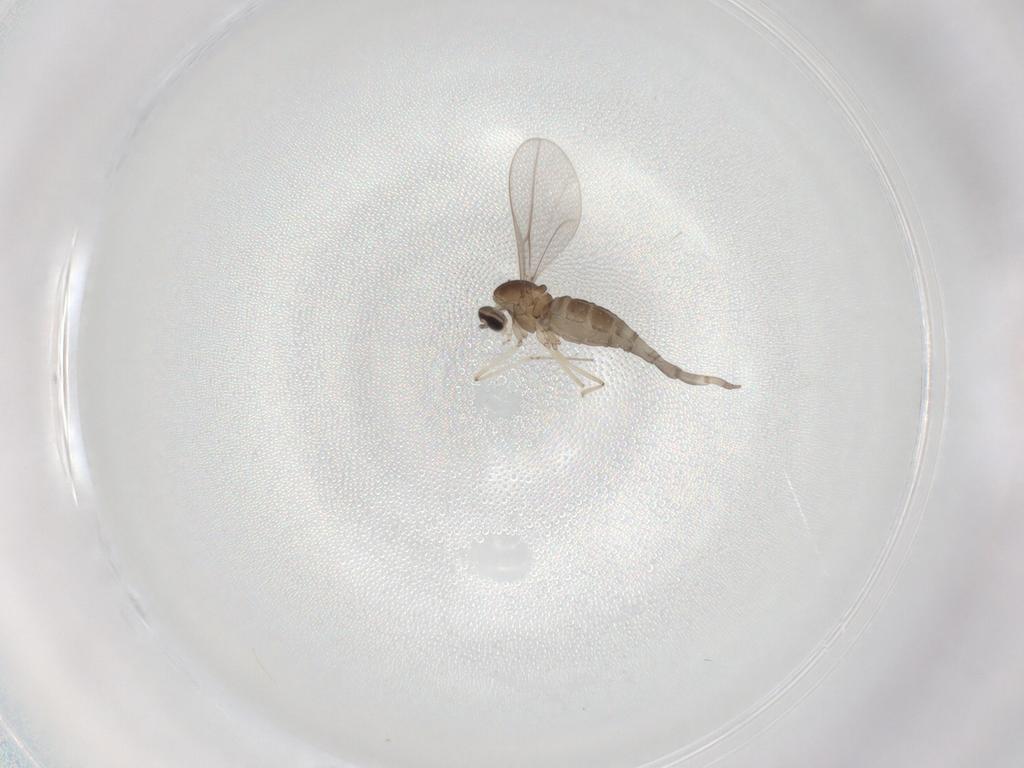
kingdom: Animalia
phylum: Arthropoda
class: Insecta
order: Diptera
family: Cecidomyiidae
